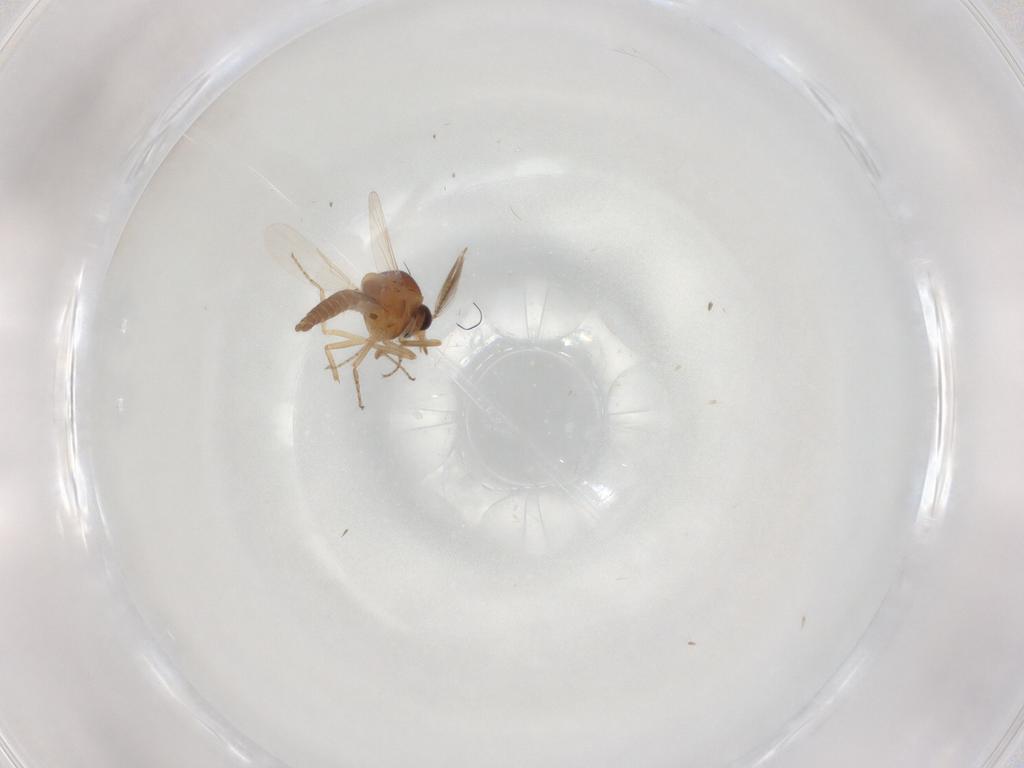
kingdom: Animalia
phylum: Arthropoda
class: Insecta
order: Diptera
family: Ceratopogonidae
